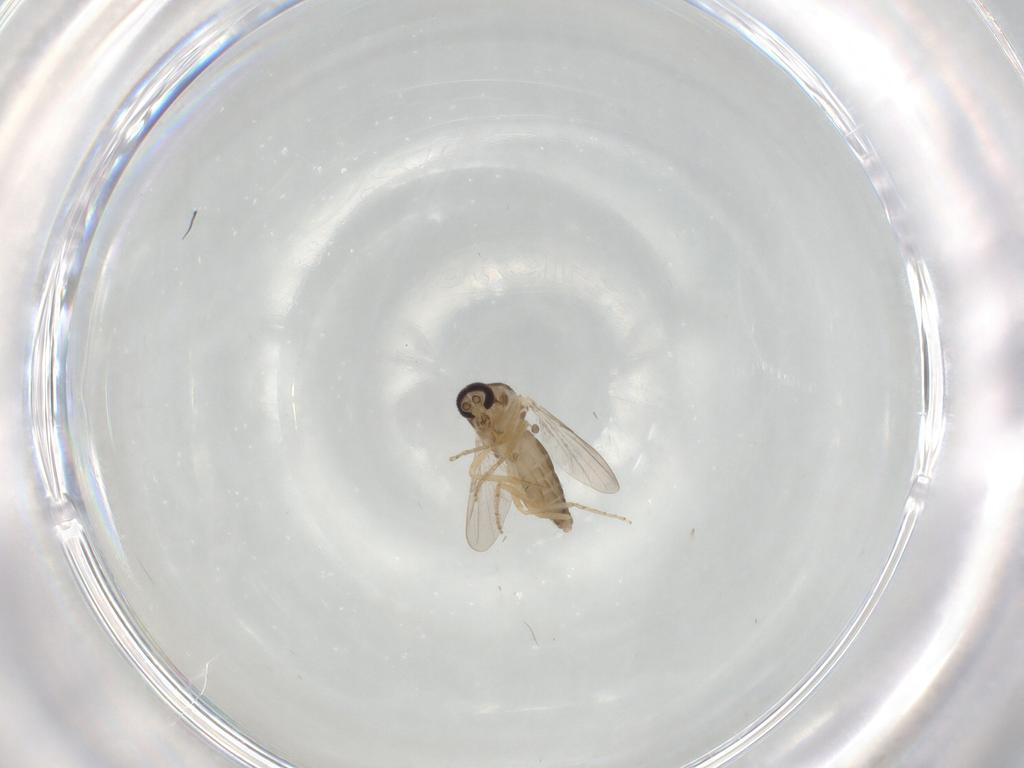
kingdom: Animalia
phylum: Arthropoda
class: Insecta
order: Diptera
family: Ceratopogonidae
